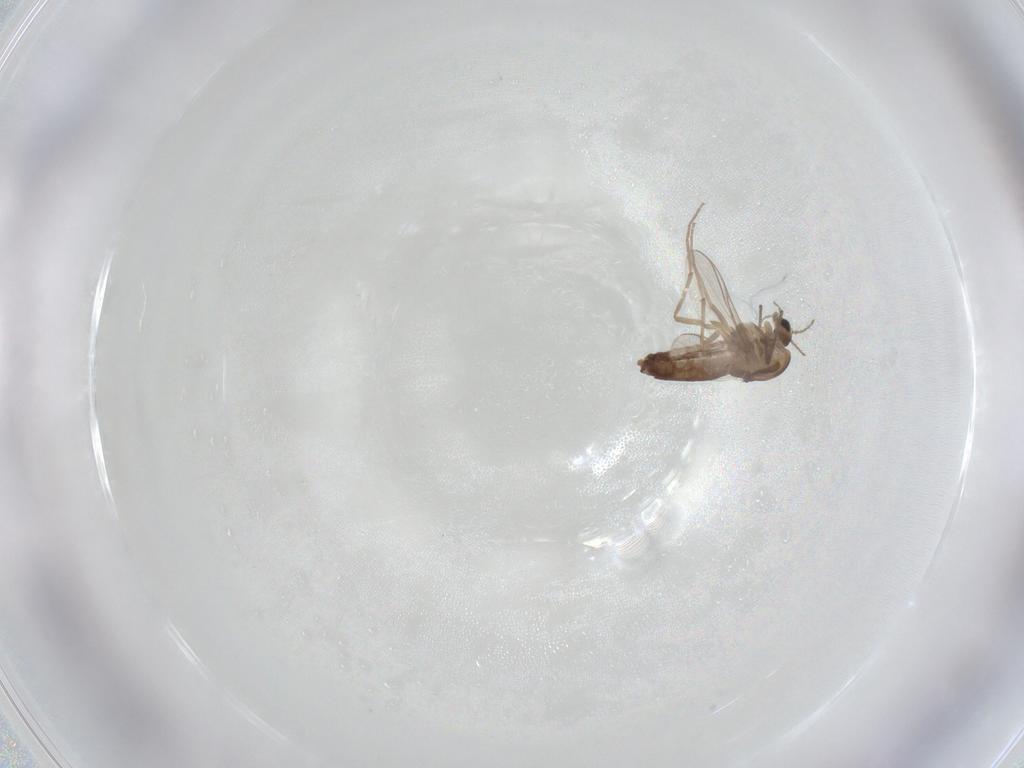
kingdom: Animalia
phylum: Arthropoda
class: Insecta
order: Diptera
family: Chironomidae
